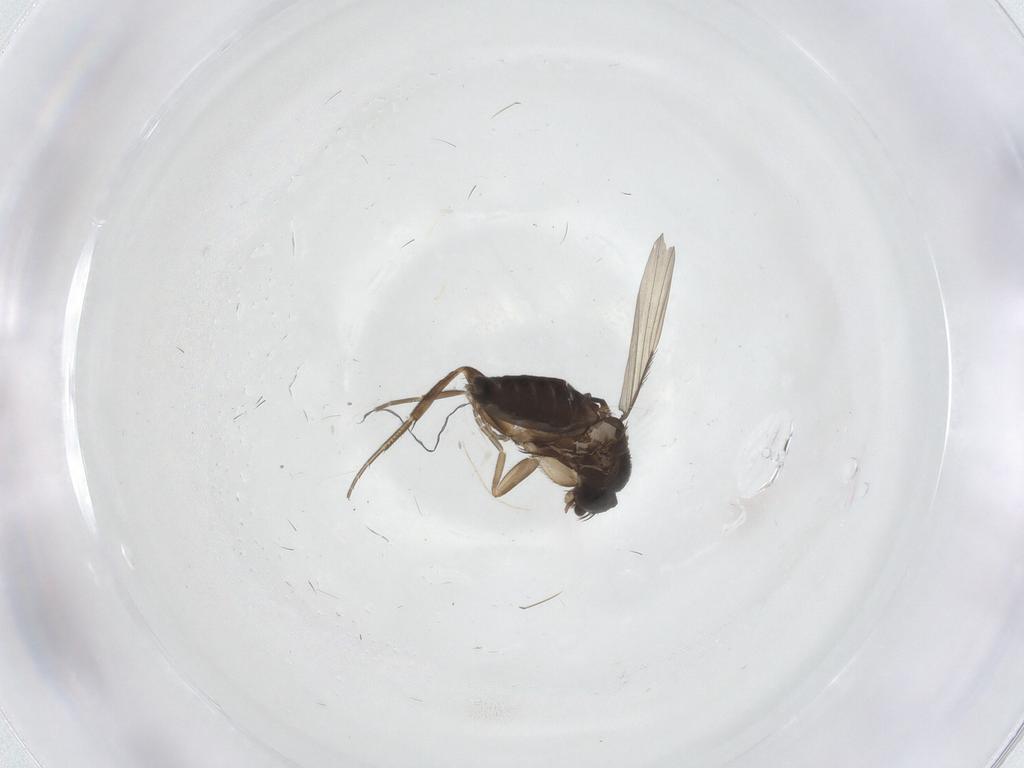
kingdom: Animalia
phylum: Arthropoda
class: Insecta
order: Diptera
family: Phoridae
